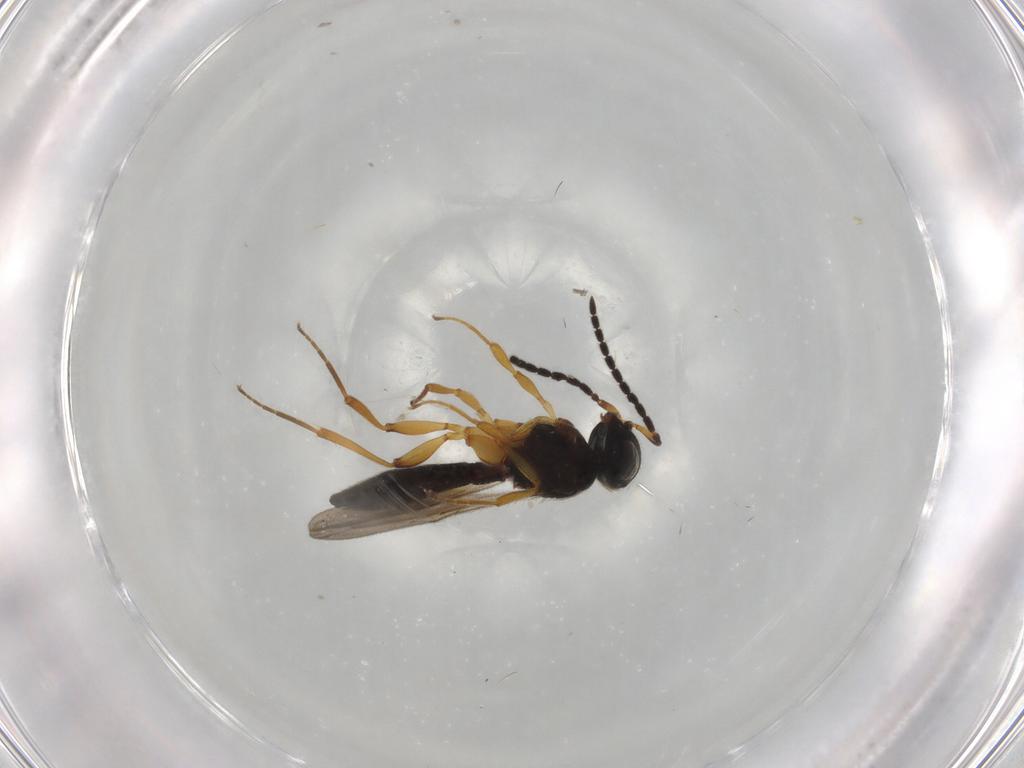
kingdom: Animalia
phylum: Arthropoda
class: Insecta
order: Hymenoptera
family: Scelionidae
